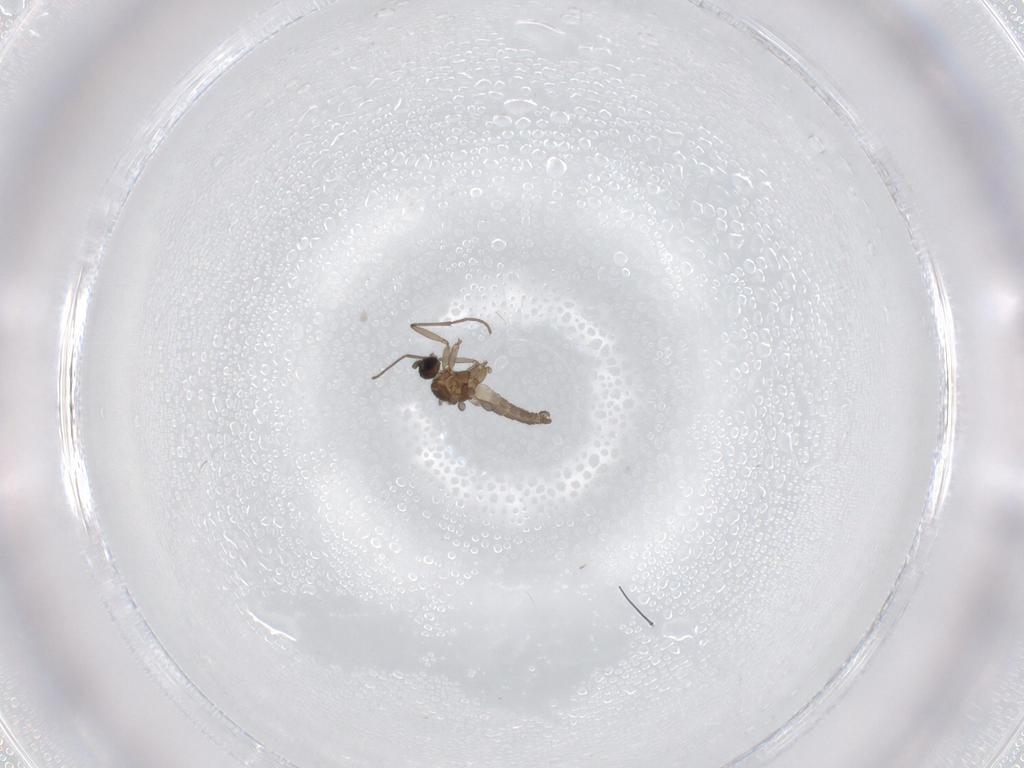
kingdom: Animalia
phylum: Arthropoda
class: Insecta
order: Diptera
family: Sciaridae
